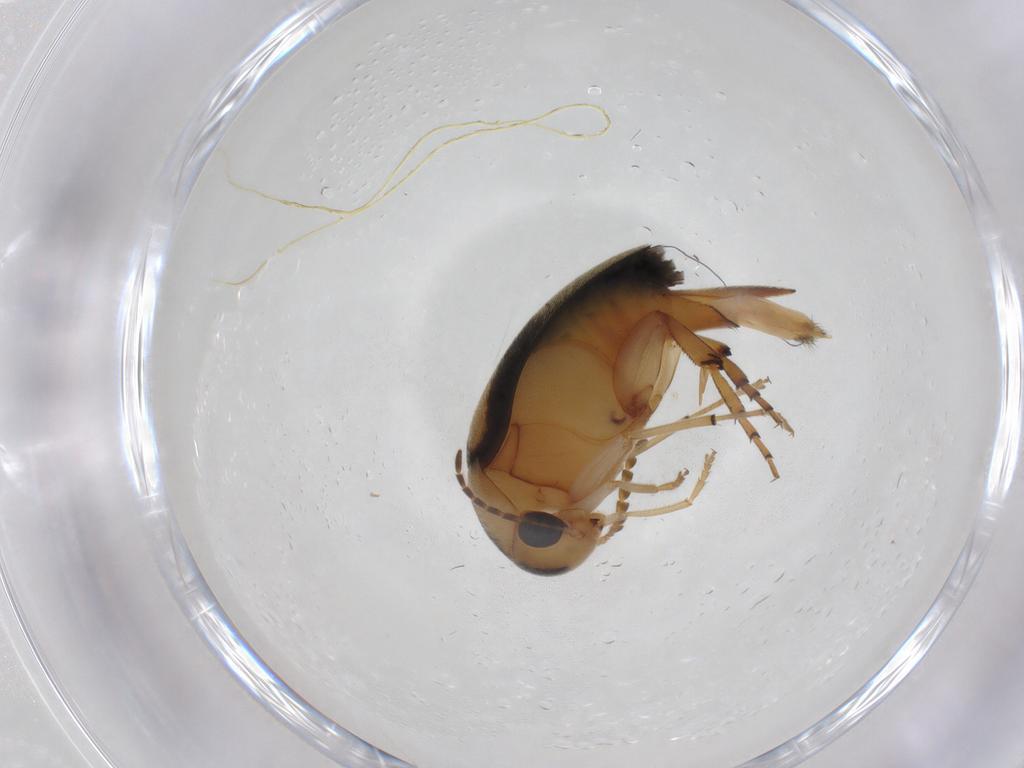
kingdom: Animalia
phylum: Arthropoda
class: Insecta
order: Coleoptera
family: Mordellidae
